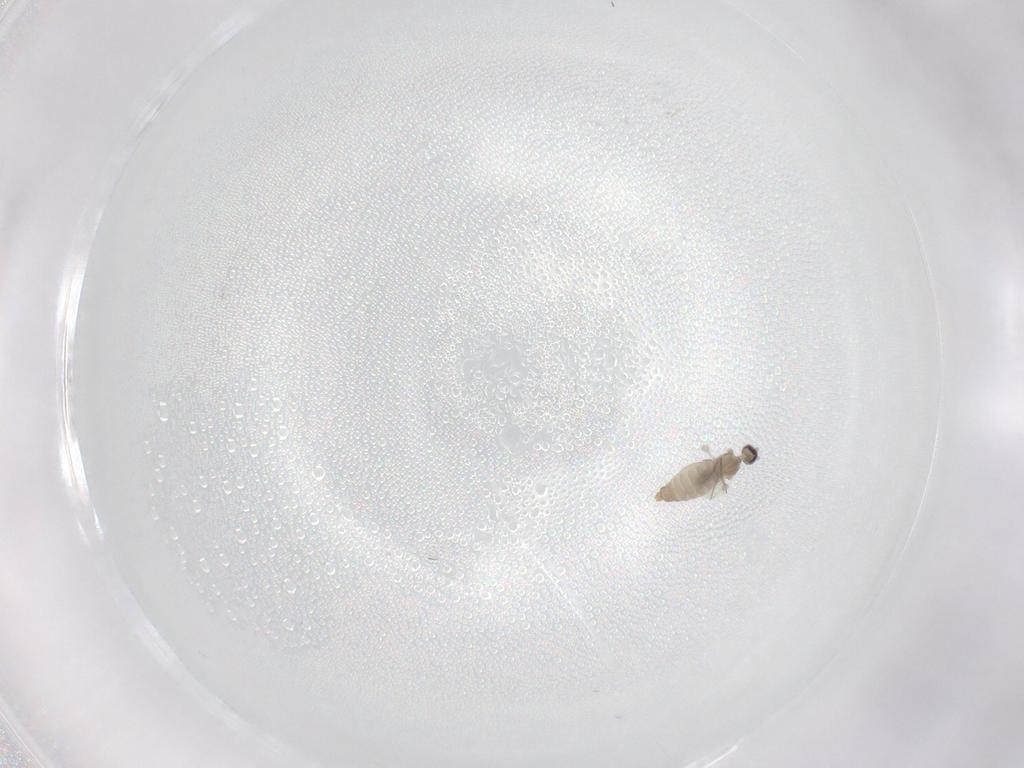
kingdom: Animalia
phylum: Arthropoda
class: Insecta
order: Diptera
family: Cecidomyiidae
